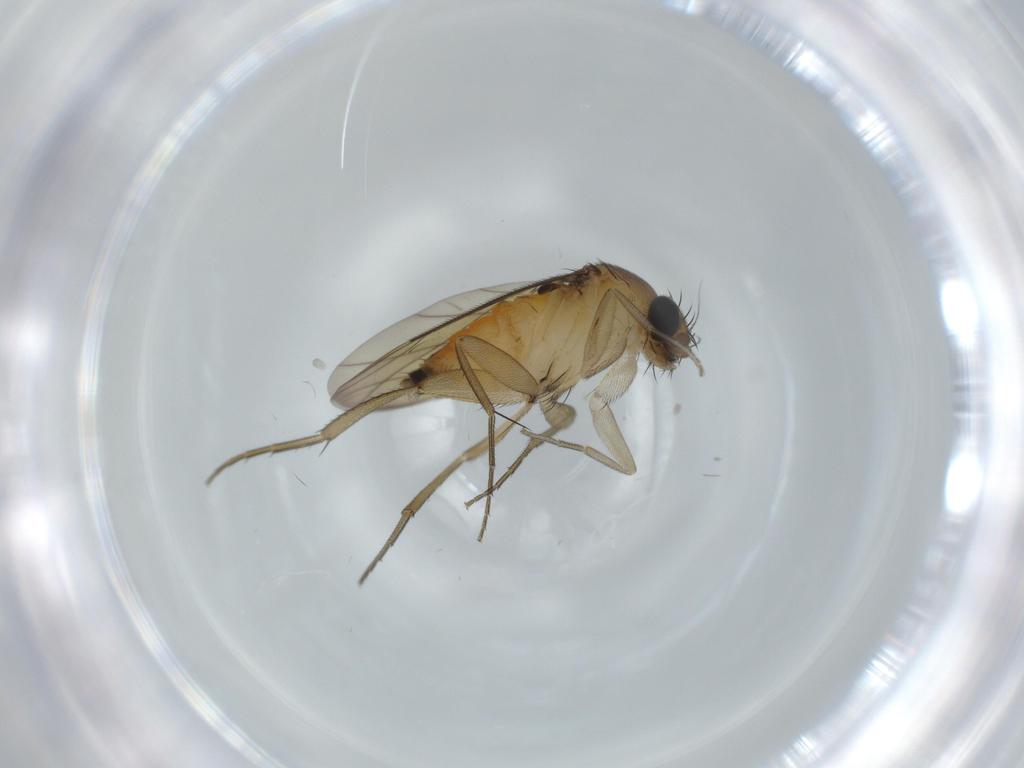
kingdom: Animalia
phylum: Arthropoda
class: Insecta
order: Diptera
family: Phoridae
